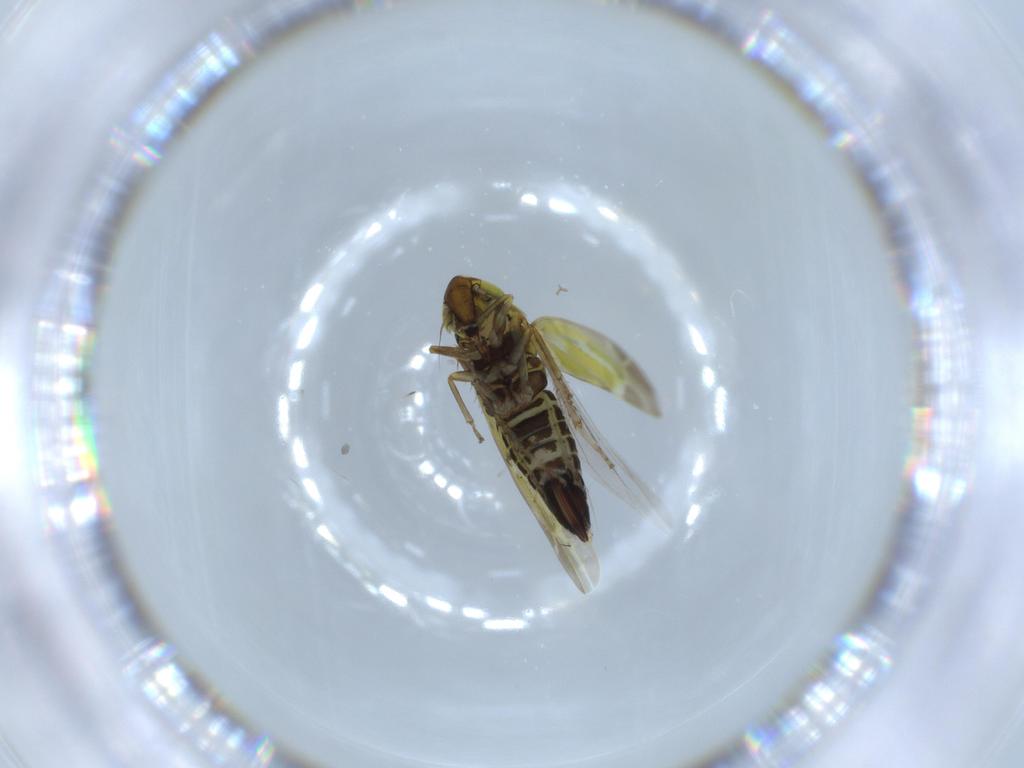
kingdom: Animalia
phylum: Arthropoda
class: Insecta
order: Hemiptera
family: Cicadellidae
